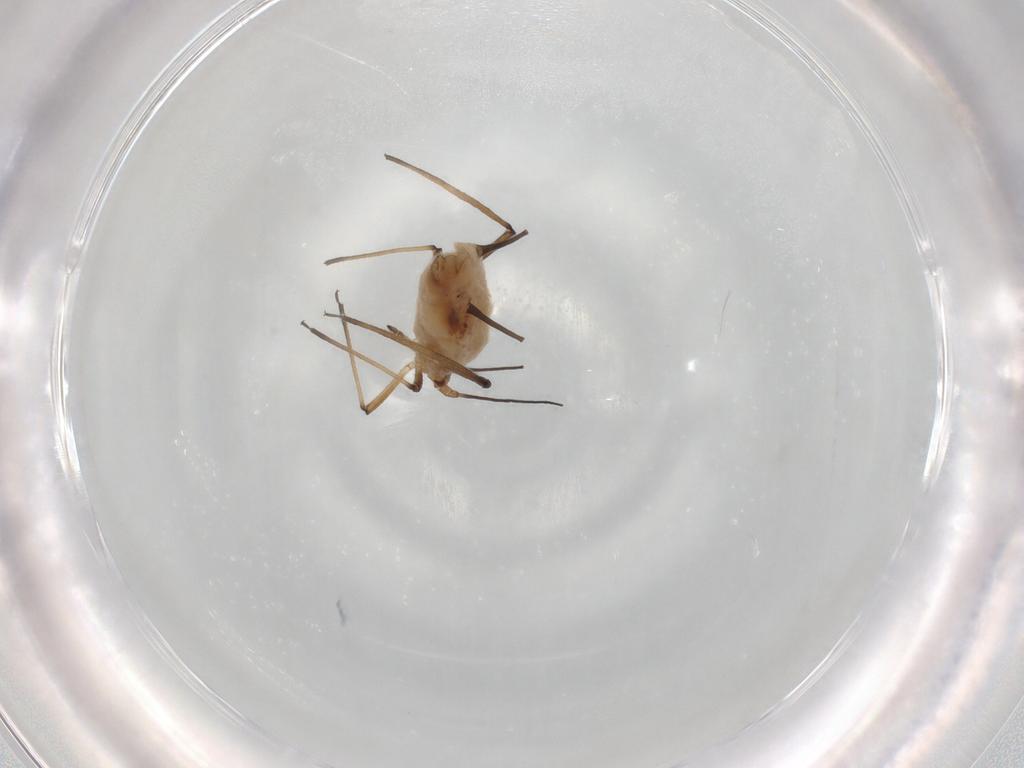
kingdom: Animalia
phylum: Arthropoda
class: Insecta
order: Hemiptera
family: Aphididae
